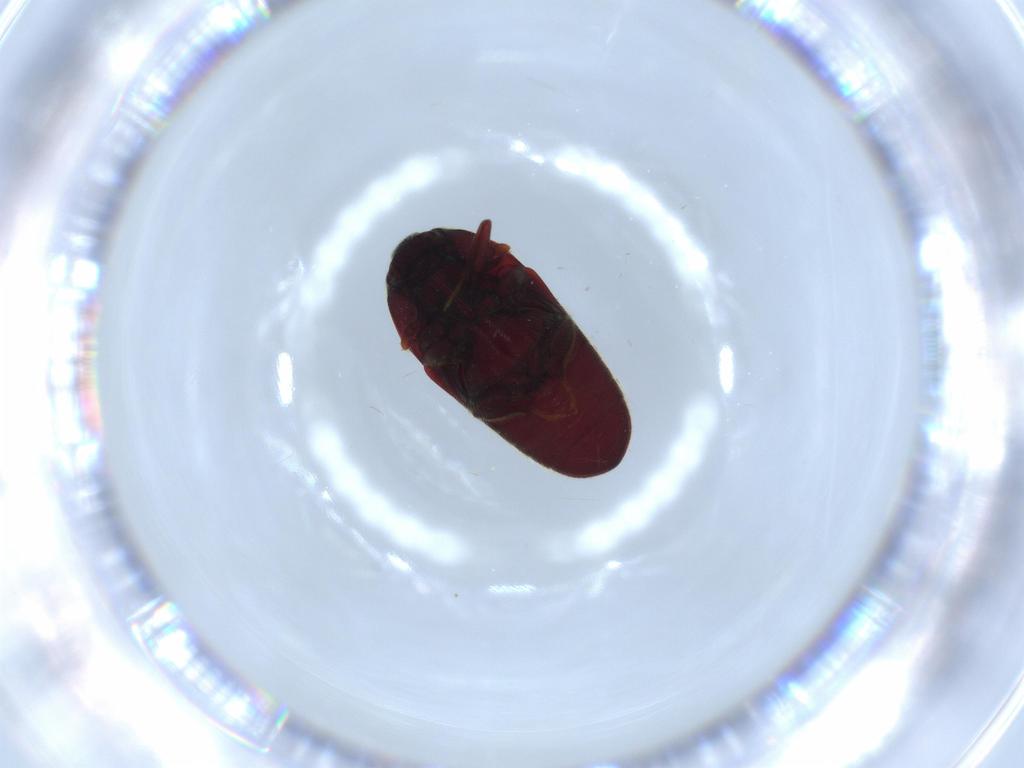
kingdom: Animalia
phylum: Arthropoda
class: Insecta
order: Coleoptera
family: Throscidae
